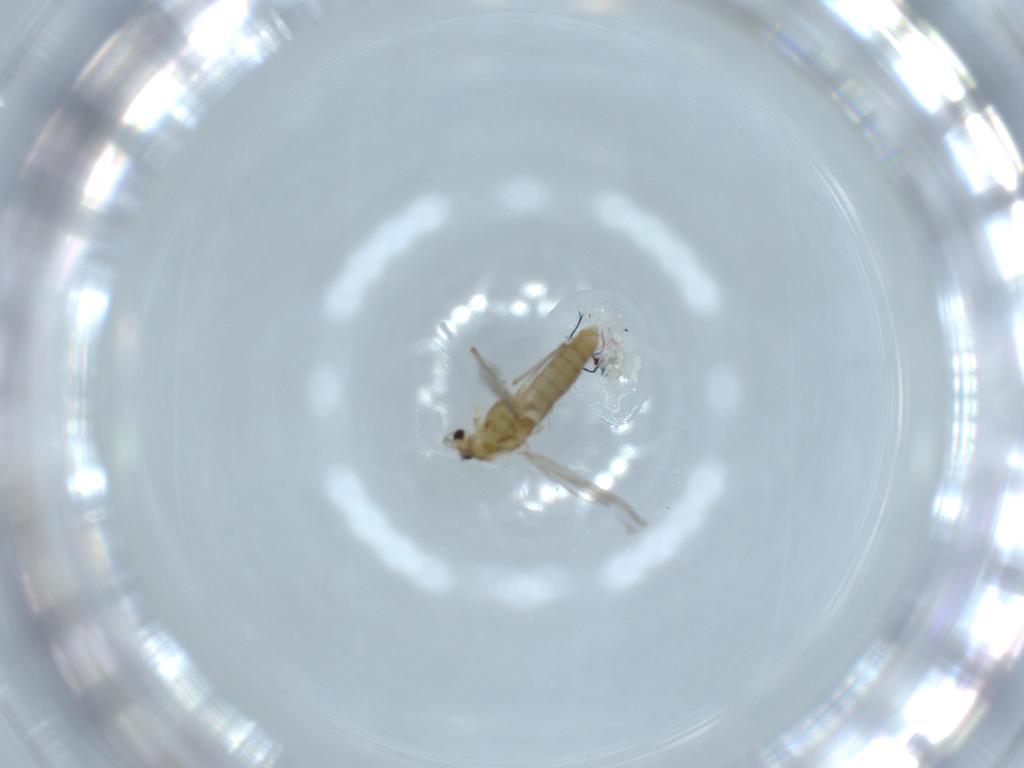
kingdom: Animalia
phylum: Arthropoda
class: Insecta
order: Diptera
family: Chironomidae
